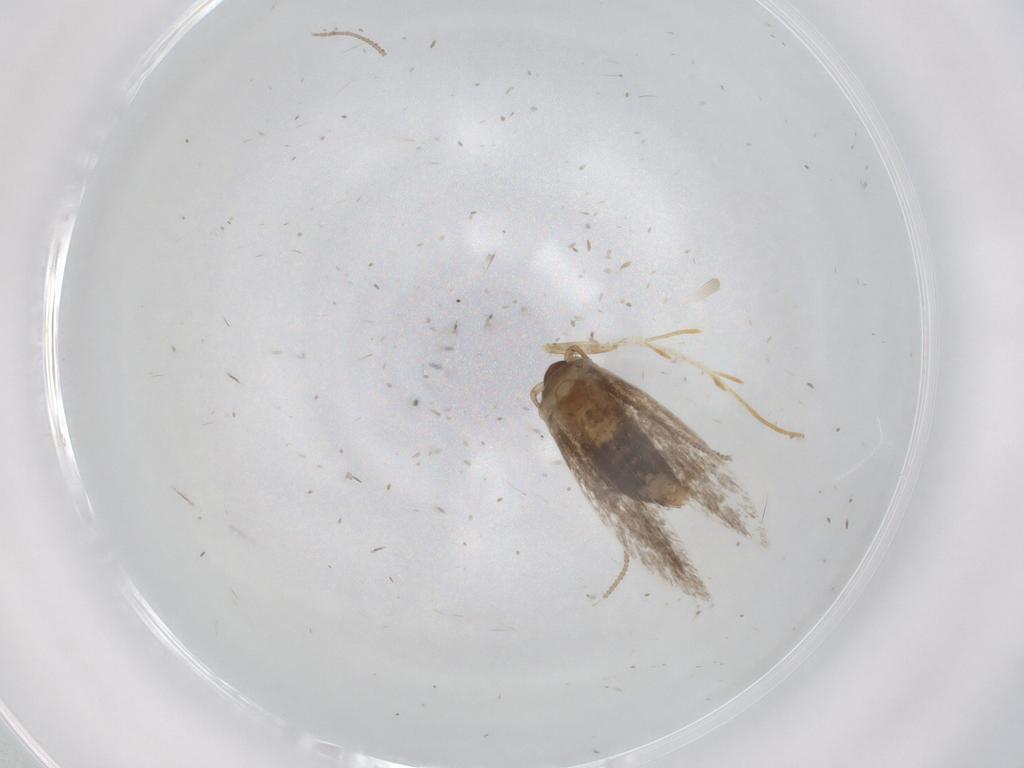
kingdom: Animalia
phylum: Arthropoda
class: Insecta
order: Lepidoptera
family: Tineidae
